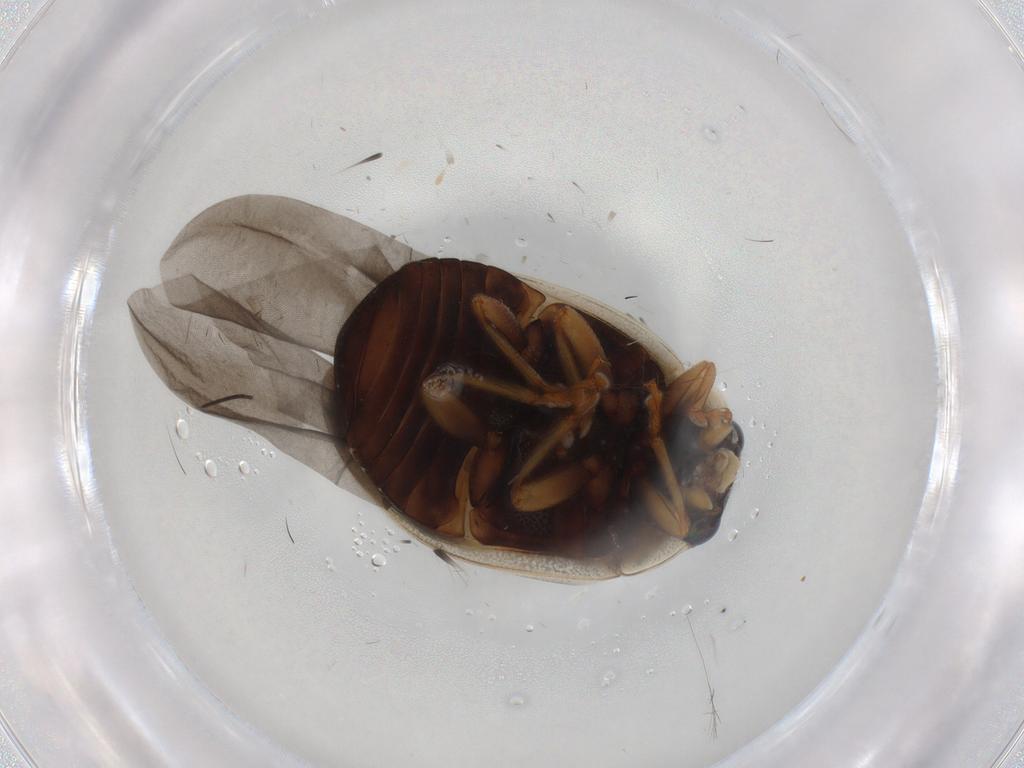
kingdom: Animalia
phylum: Arthropoda
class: Insecta
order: Coleoptera
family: Coccinellidae
